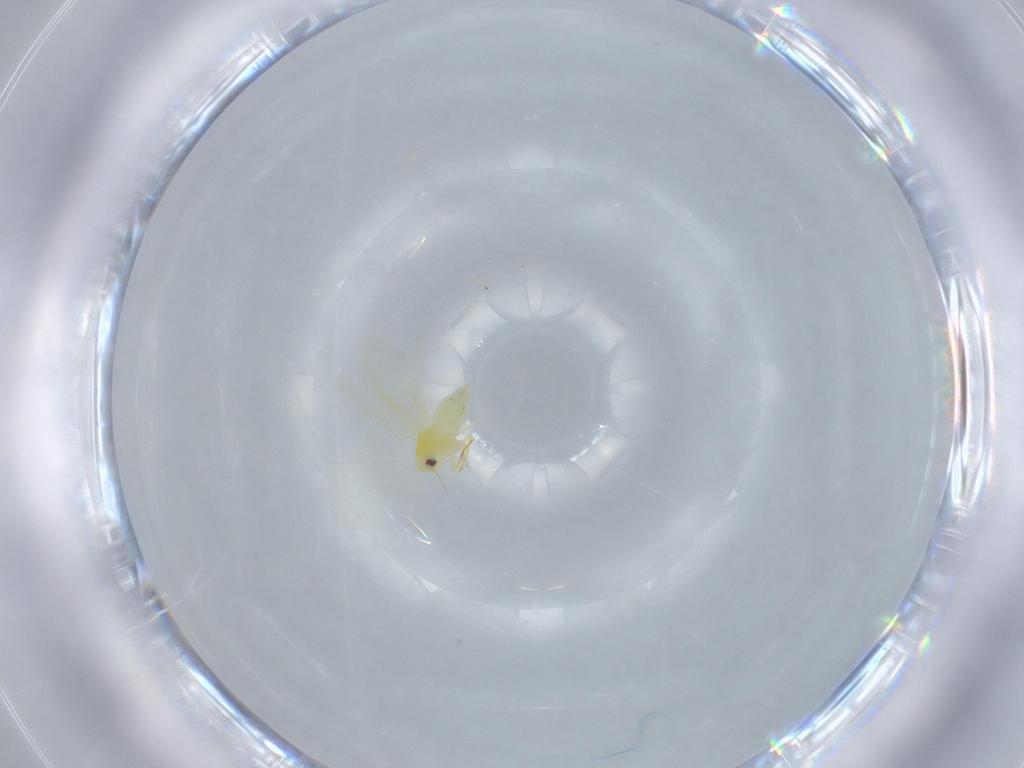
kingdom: Animalia
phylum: Arthropoda
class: Insecta
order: Hemiptera
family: Aleyrodidae
